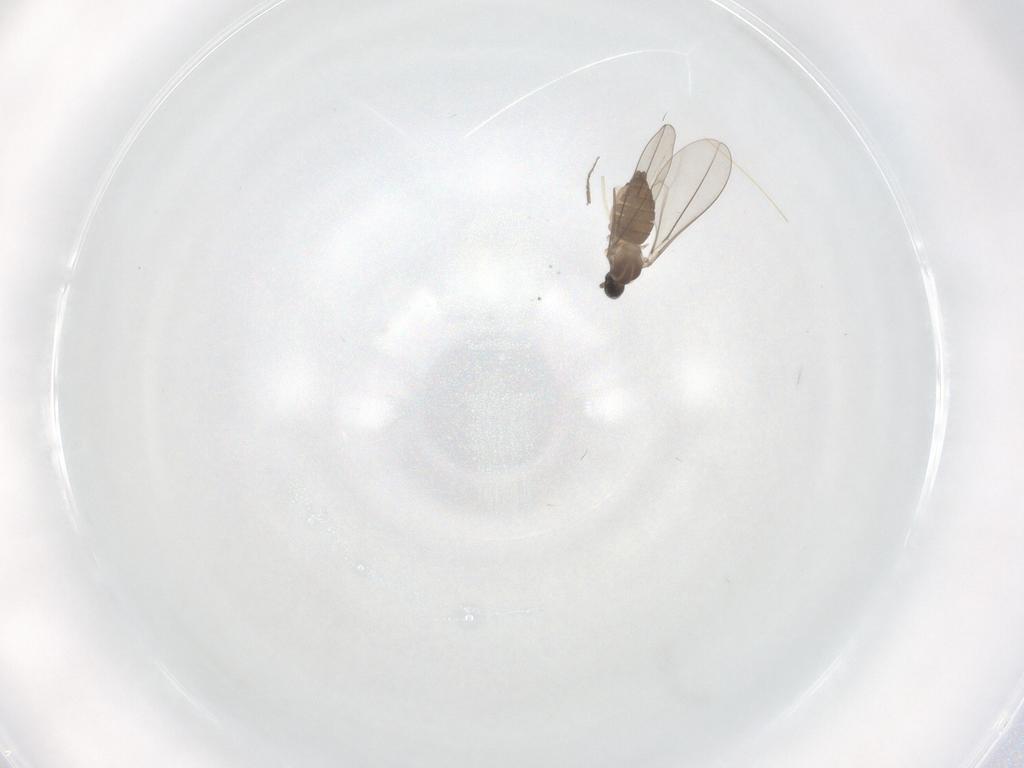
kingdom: Animalia
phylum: Arthropoda
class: Insecta
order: Diptera
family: Cecidomyiidae
